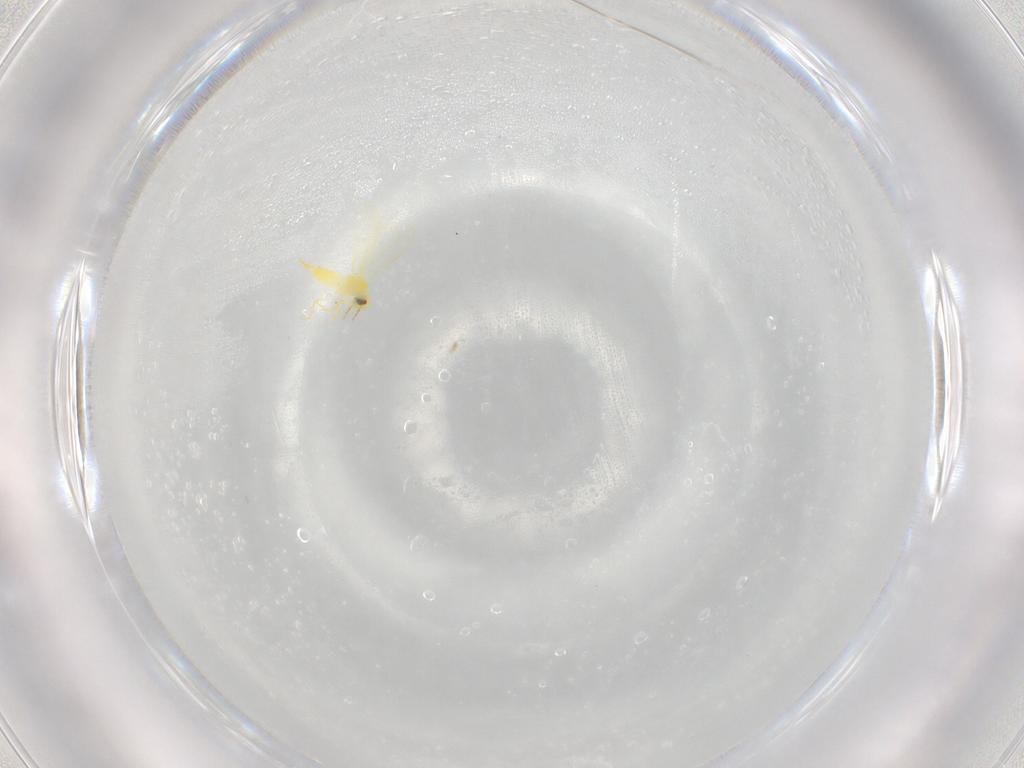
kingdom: Animalia
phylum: Arthropoda
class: Insecta
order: Hemiptera
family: Aleyrodidae
